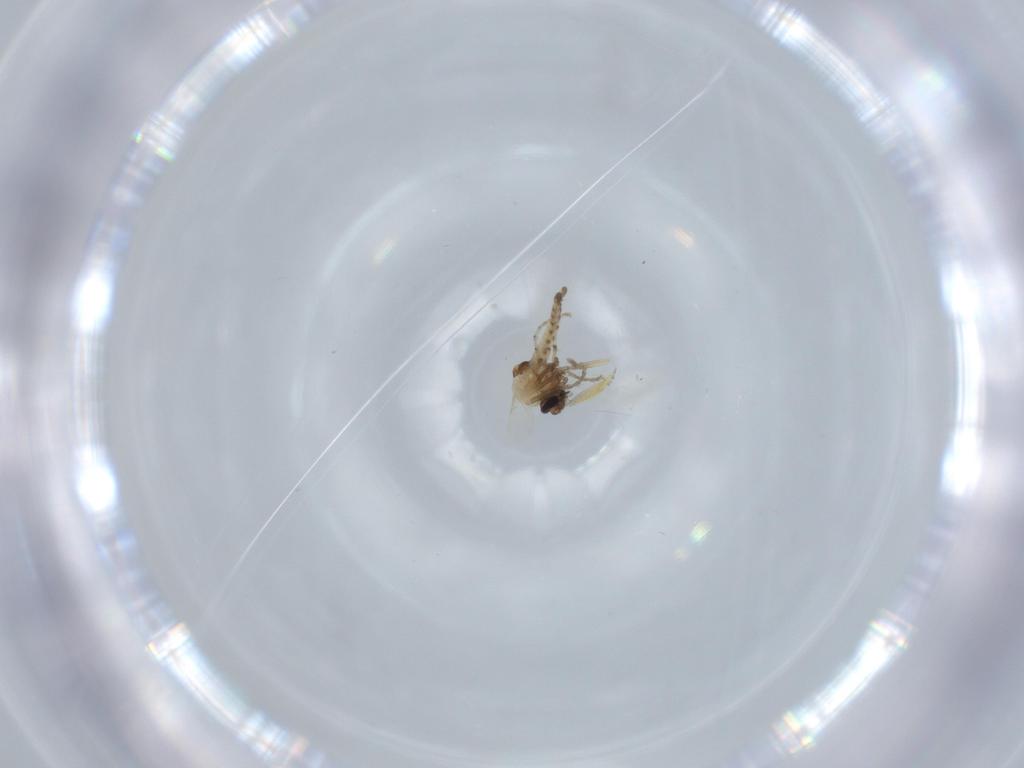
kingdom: Animalia
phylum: Arthropoda
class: Insecta
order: Diptera
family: Ceratopogonidae
